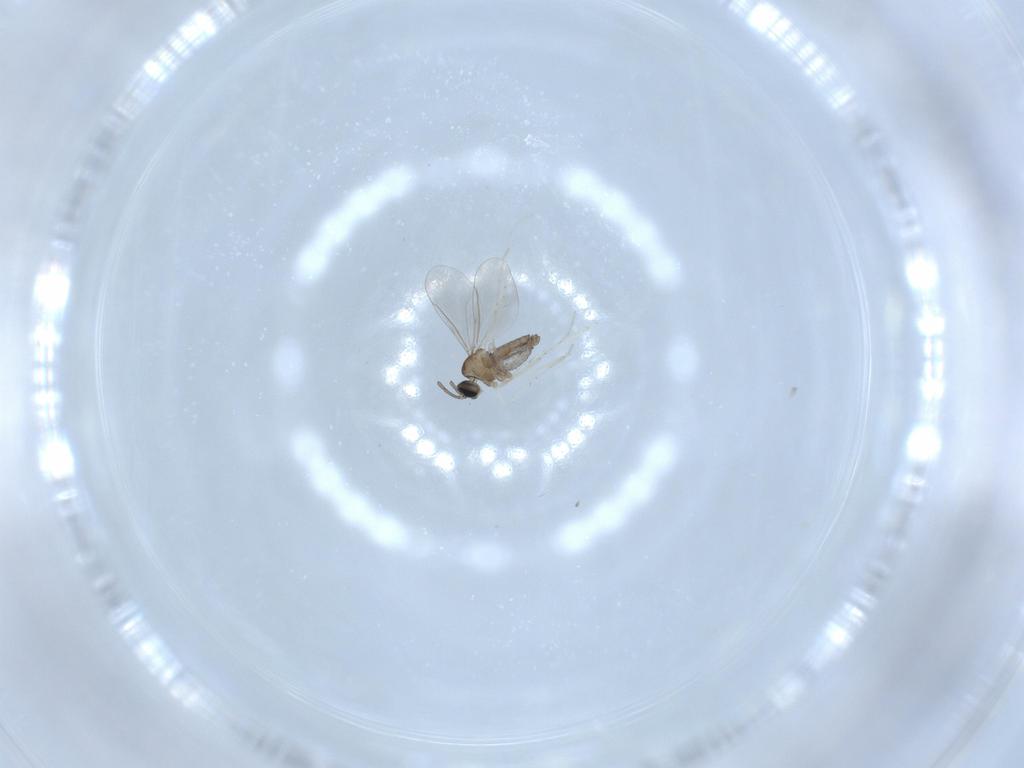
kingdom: Animalia
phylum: Arthropoda
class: Insecta
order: Diptera
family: Cecidomyiidae
